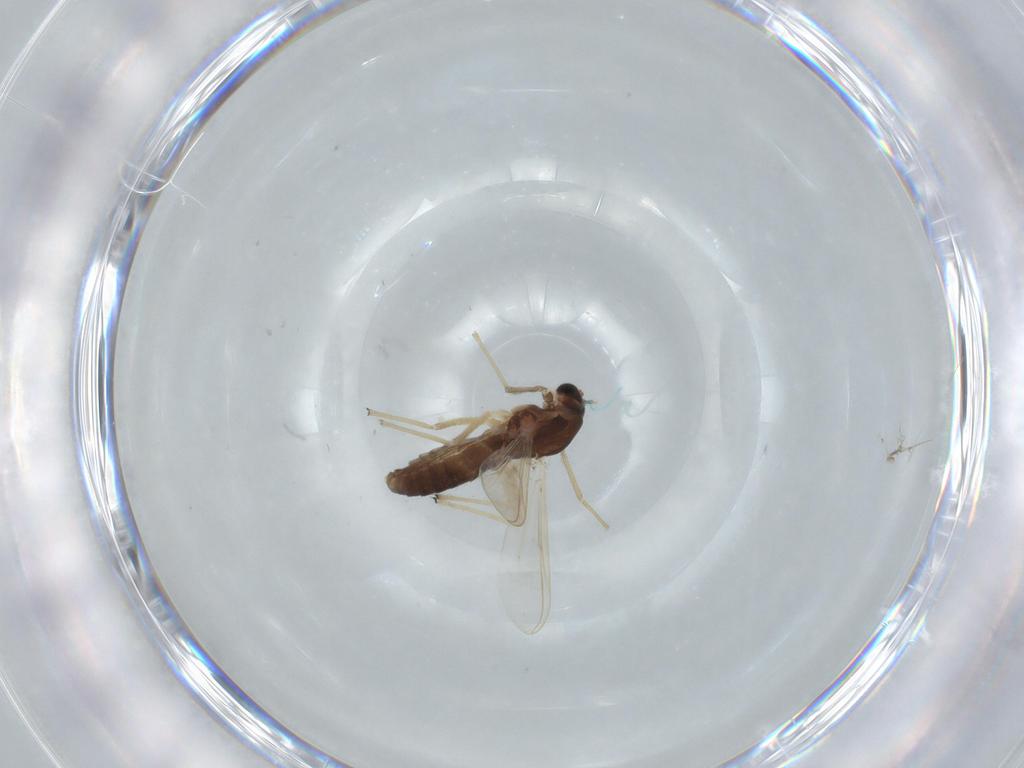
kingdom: Animalia
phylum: Arthropoda
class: Insecta
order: Diptera
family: Chironomidae
